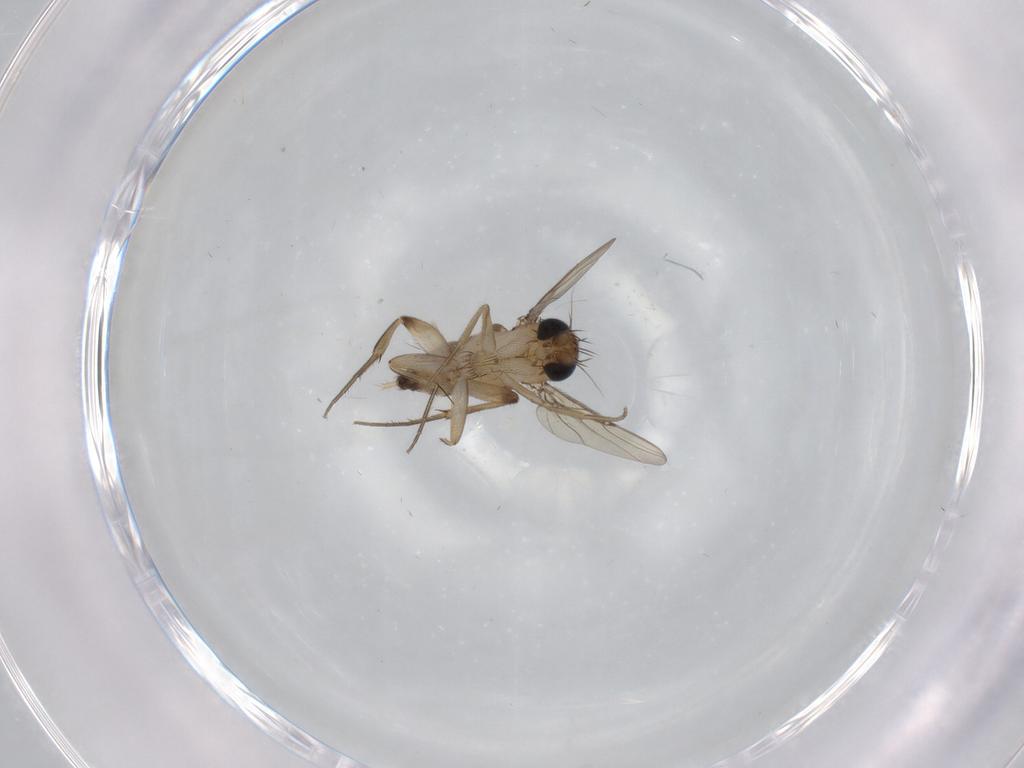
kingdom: Animalia
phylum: Arthropoda
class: Insecta
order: Diptera
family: Phoridae
